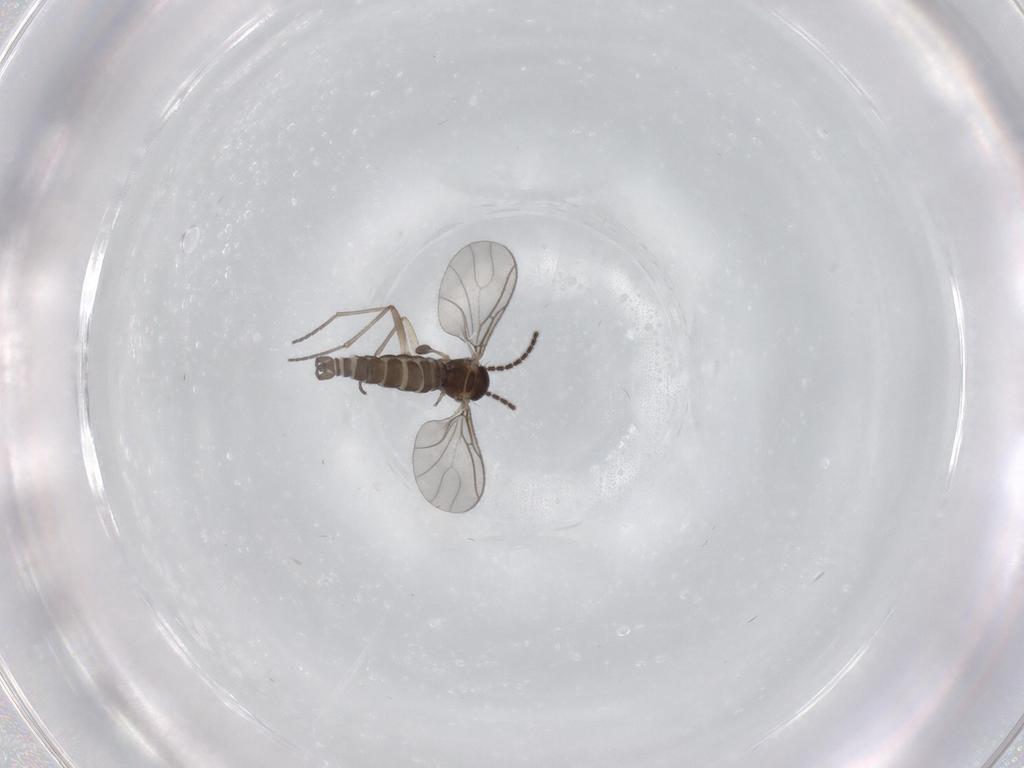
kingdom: Animalia
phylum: Arthropoda
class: Insecta
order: Diptera
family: Sciaridae
